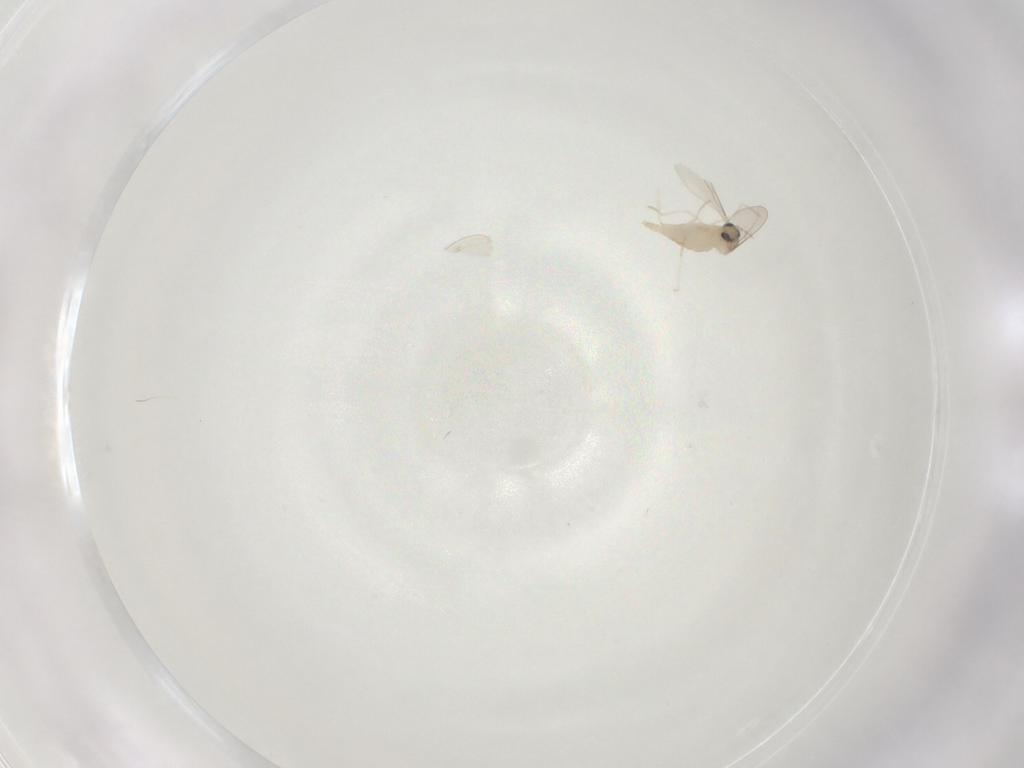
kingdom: Animalia
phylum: Arthropoda
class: Insecta
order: Diptera
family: Cecidomyiidae
